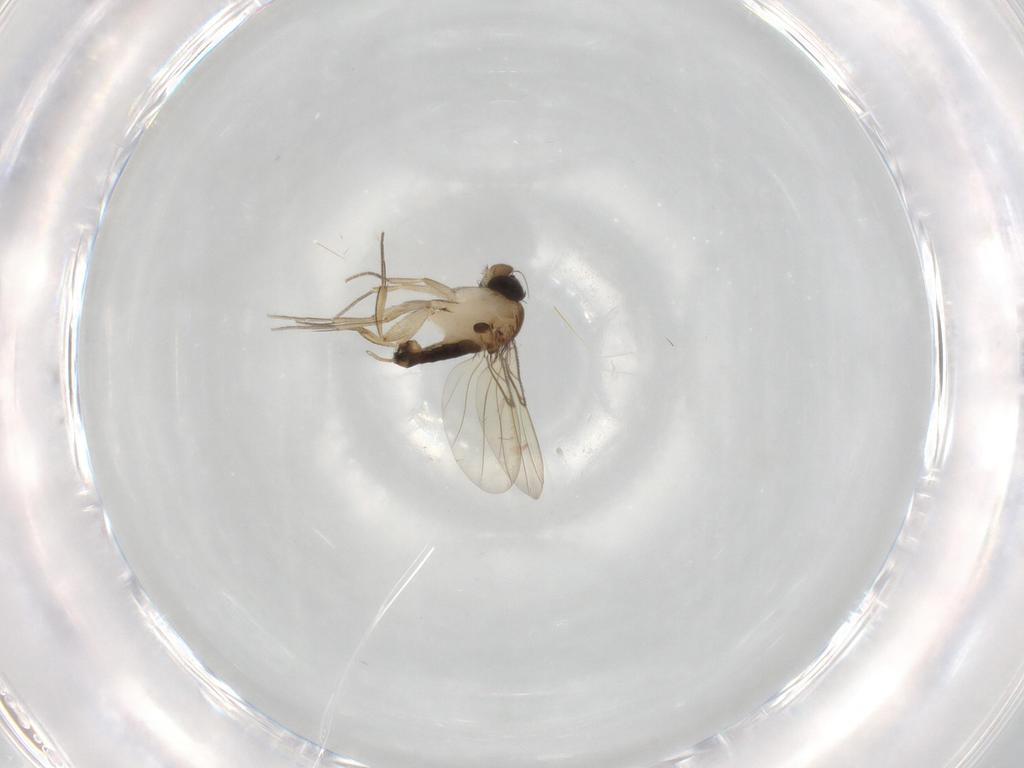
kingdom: Animalia
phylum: Arthropoda
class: Insecta
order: Diptera
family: Phoridae
